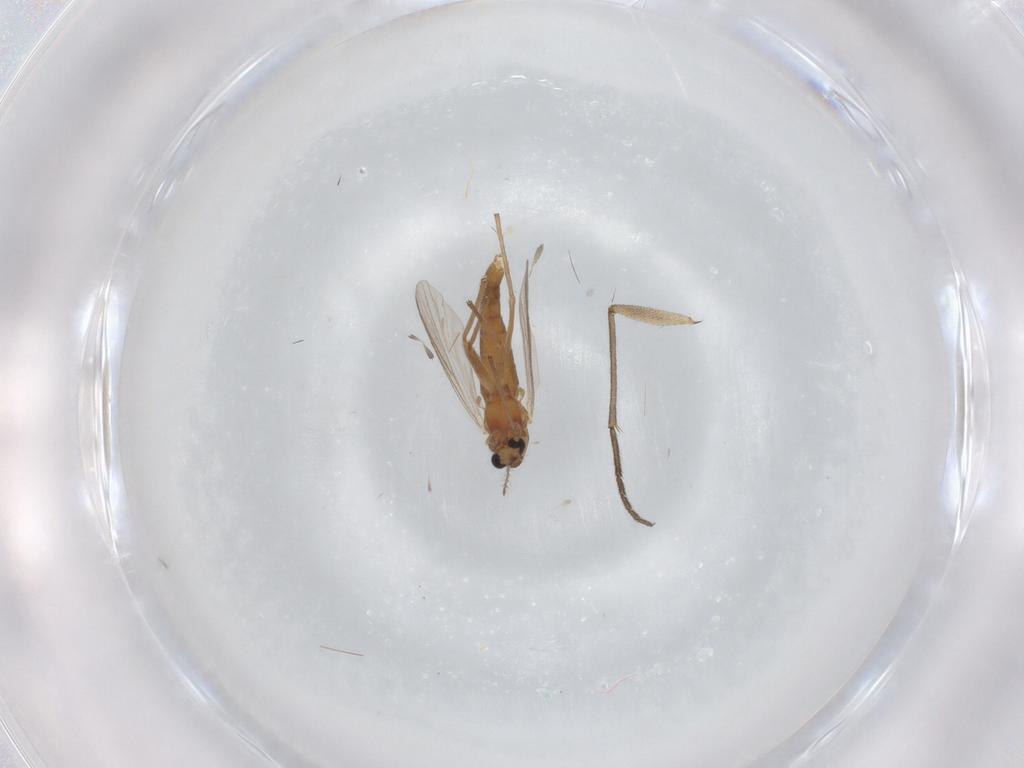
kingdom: Animalia
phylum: Arthropoda
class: Insecta
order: Diptera
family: Chironomidae
